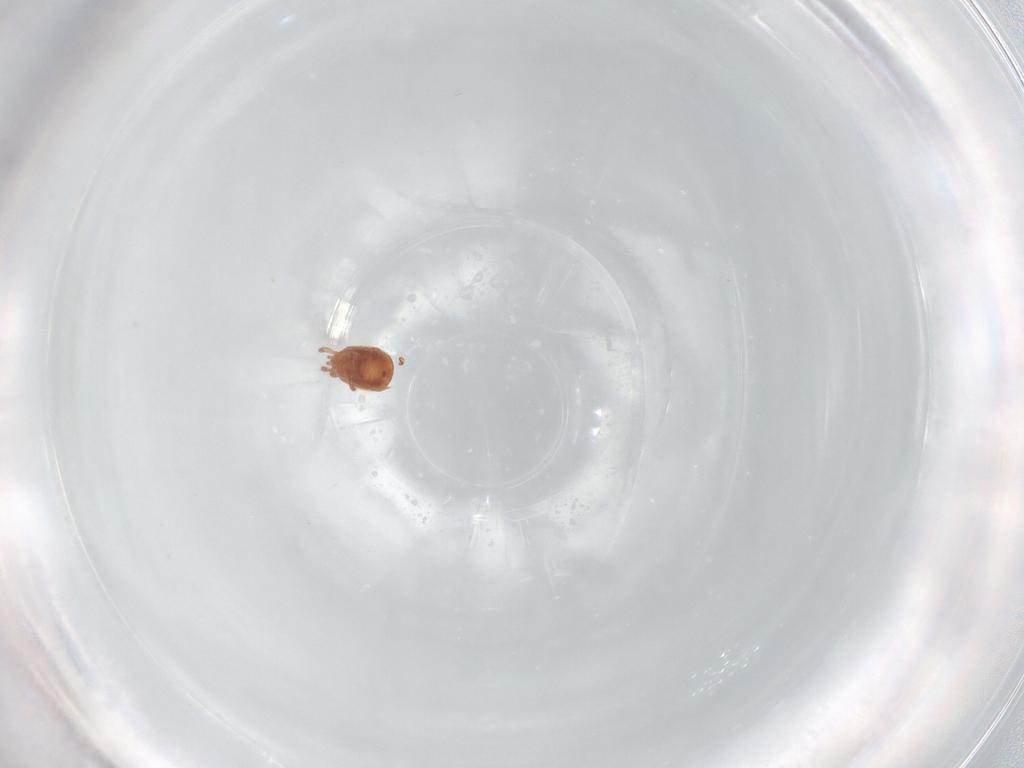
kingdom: Animalia
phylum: Arthropoda
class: Arachnida
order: Mesostigmata
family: Zerconidae
